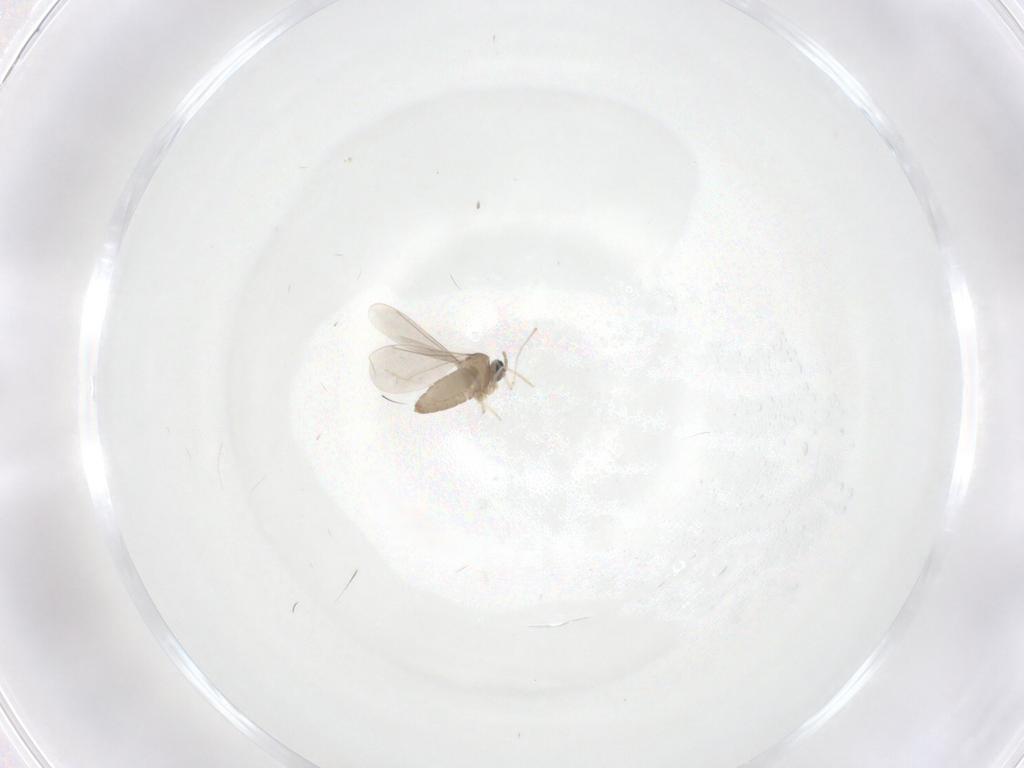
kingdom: Animalia
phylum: Arthropoda
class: Insecta
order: Diptera
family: Cecidomyiidae
